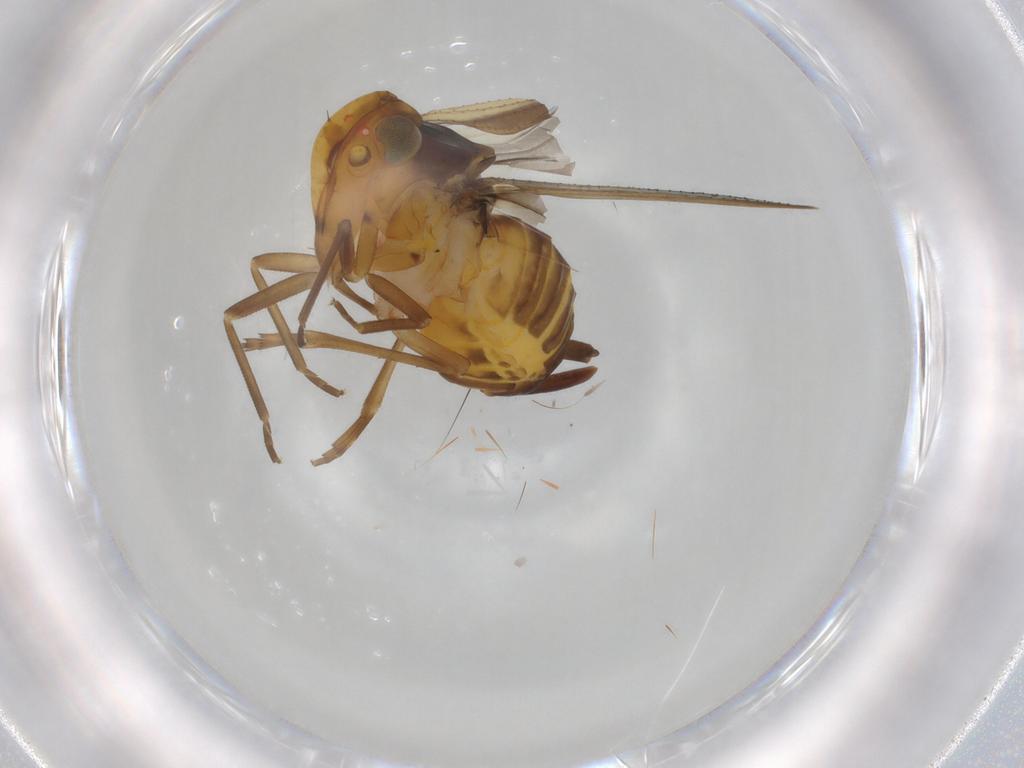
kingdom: Animalia
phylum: Arthropoda
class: Insecta
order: Hemiptera
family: Cixiidae
